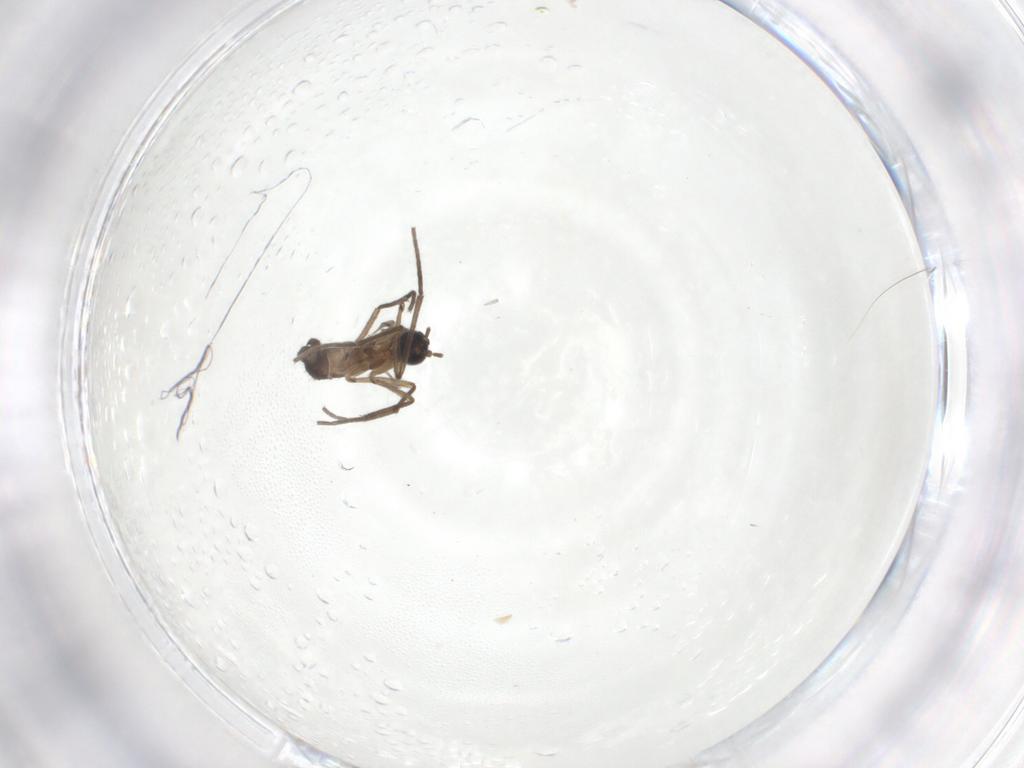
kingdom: Animalia
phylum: Arthropoda
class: Insecta
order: Diptera
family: Sciaridae
